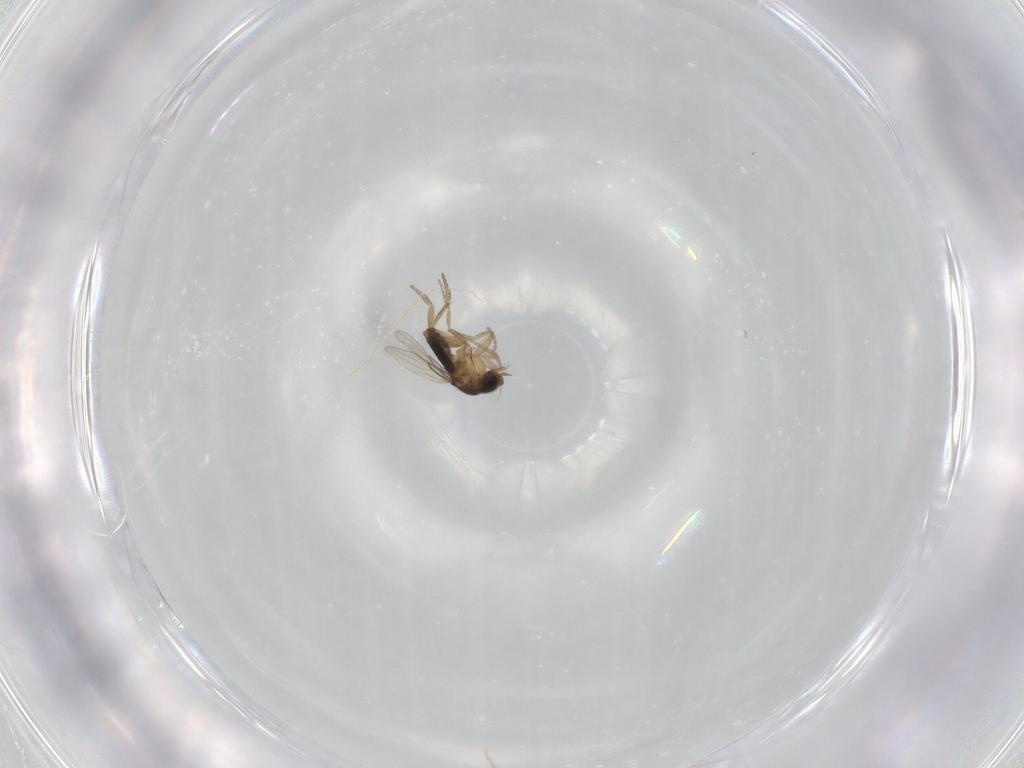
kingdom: Animalia
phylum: Arthropoda
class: Insecta
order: Diptera
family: Phoridae
